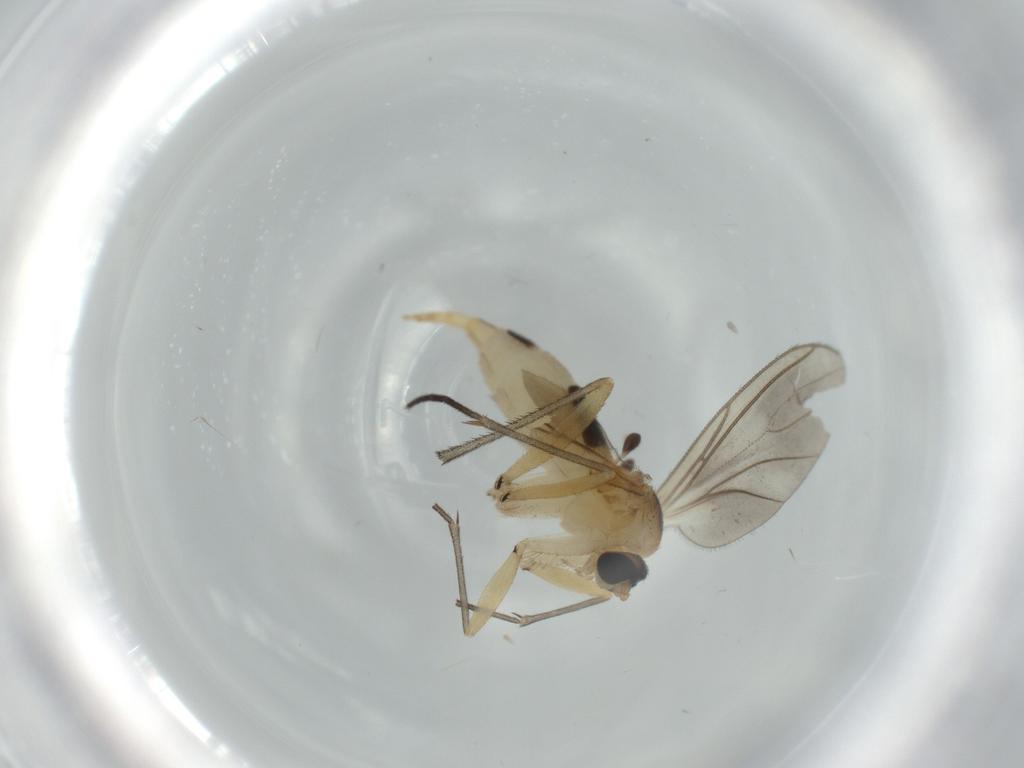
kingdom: Animalia
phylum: Arthropoda
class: Insecta
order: Diptera
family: Sciaridae
